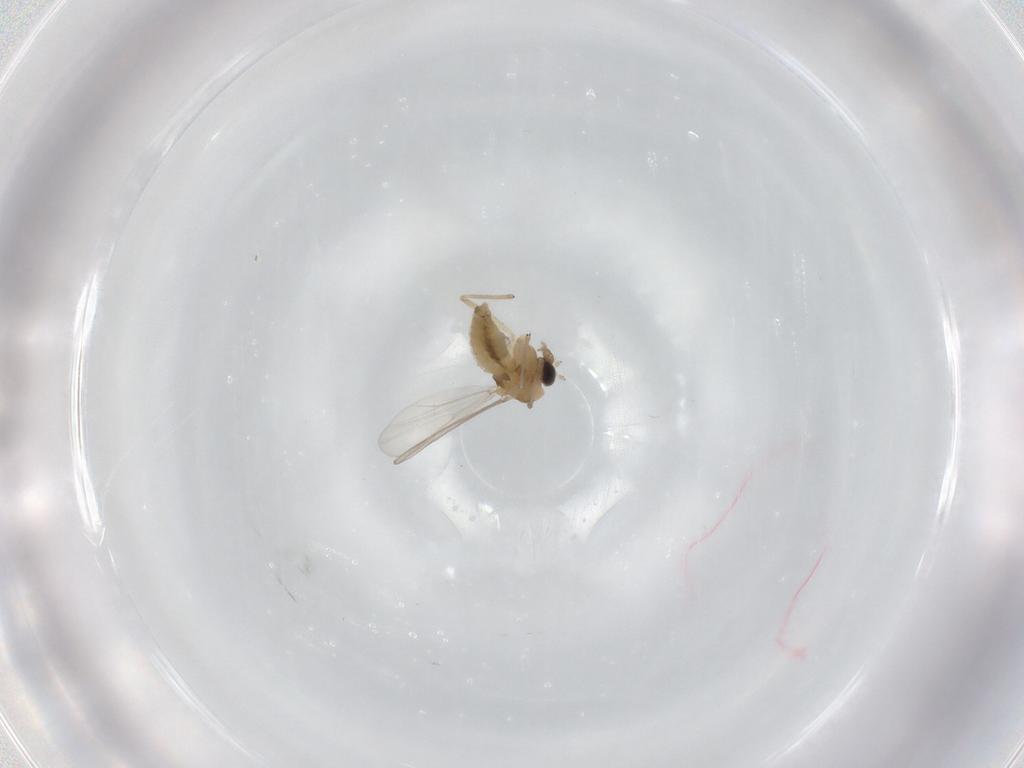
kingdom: Animalia
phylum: Arthropoda
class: Insecta
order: Diptera
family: Chironomidae
